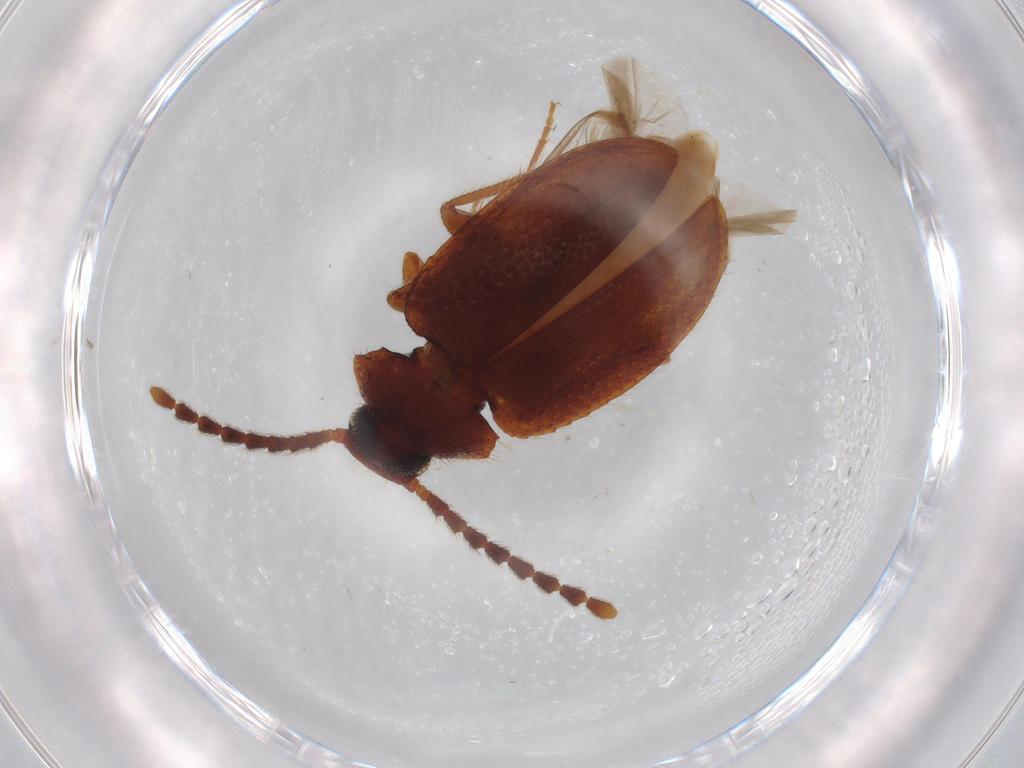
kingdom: Animalia
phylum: Arthropoda
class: Insecta
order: Coleoptera
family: Tenebrionidae
